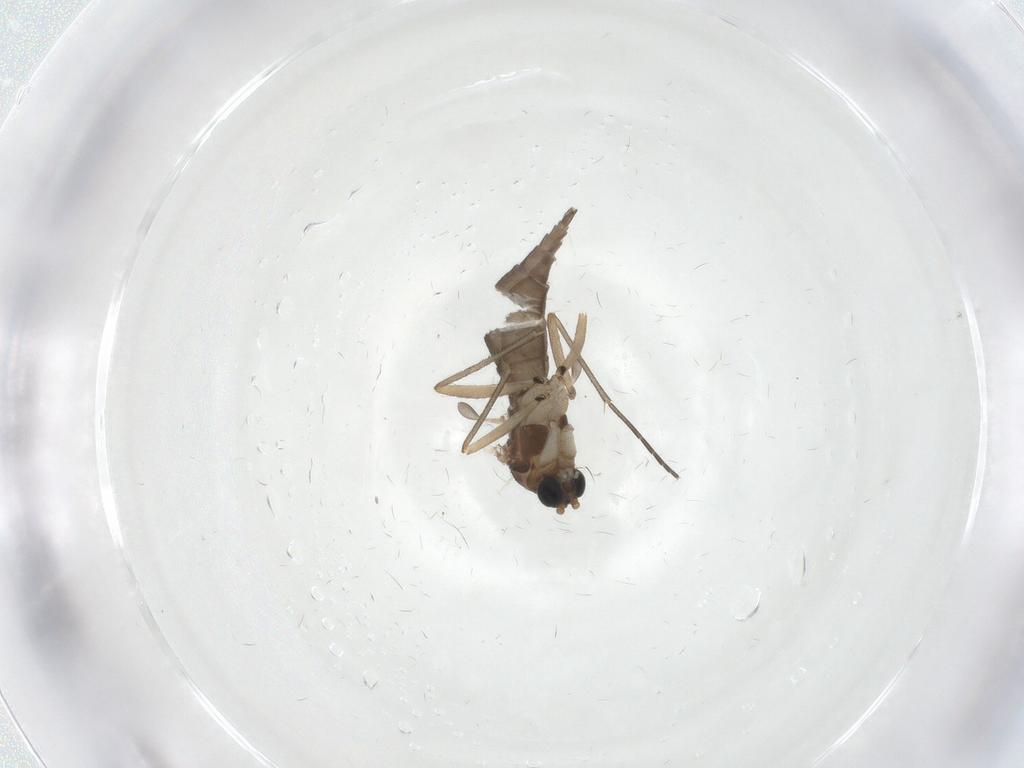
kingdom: Animalia
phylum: Arthropoda
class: Insecta
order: Diptera
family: Sciaridae
